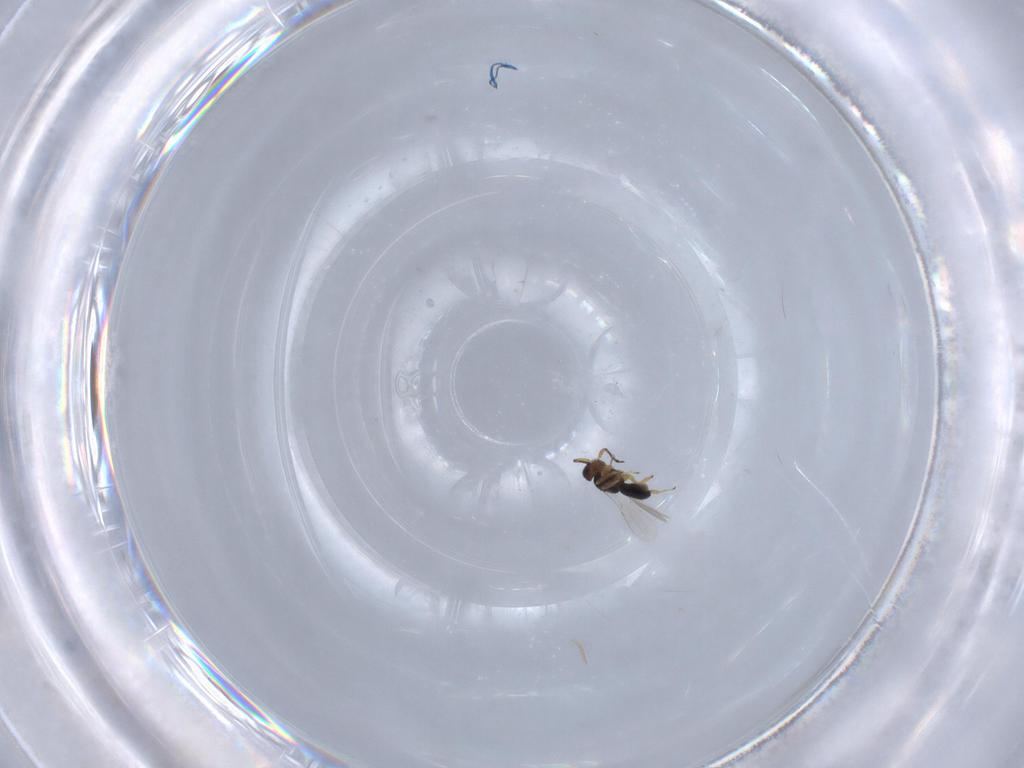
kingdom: Animalia
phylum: Arthropoda
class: Insecta
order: Hymenoptera
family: Scelionidae
